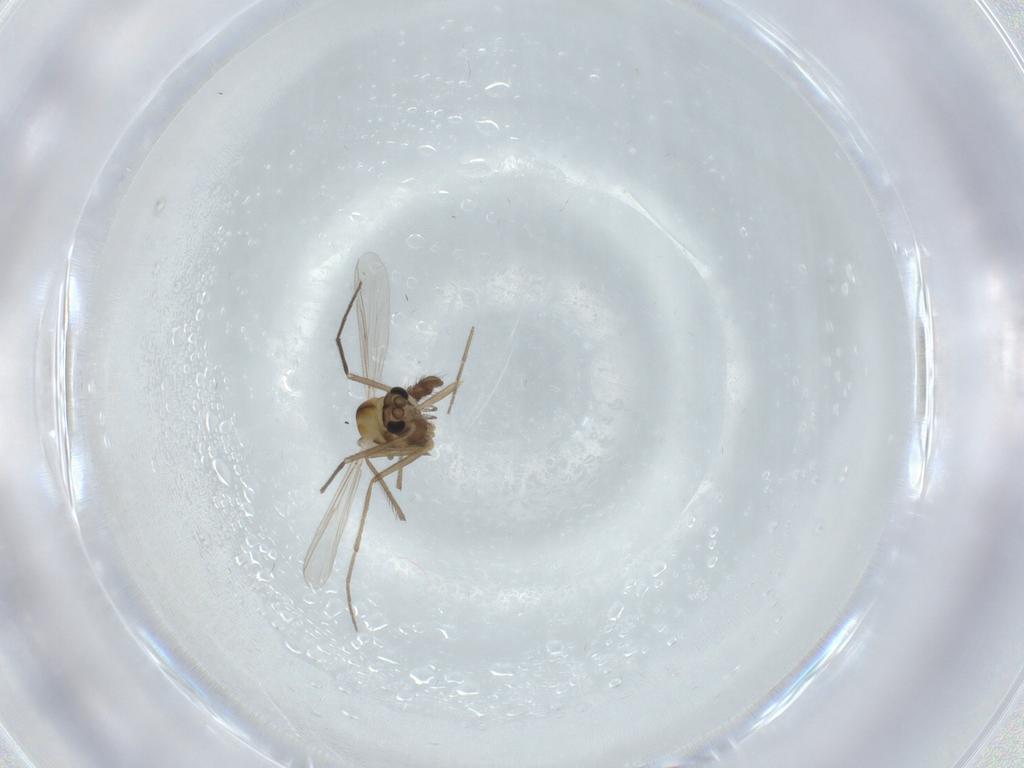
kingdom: Animalia
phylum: Arthropoda
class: Insecta
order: Diptera
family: Chironomidae
